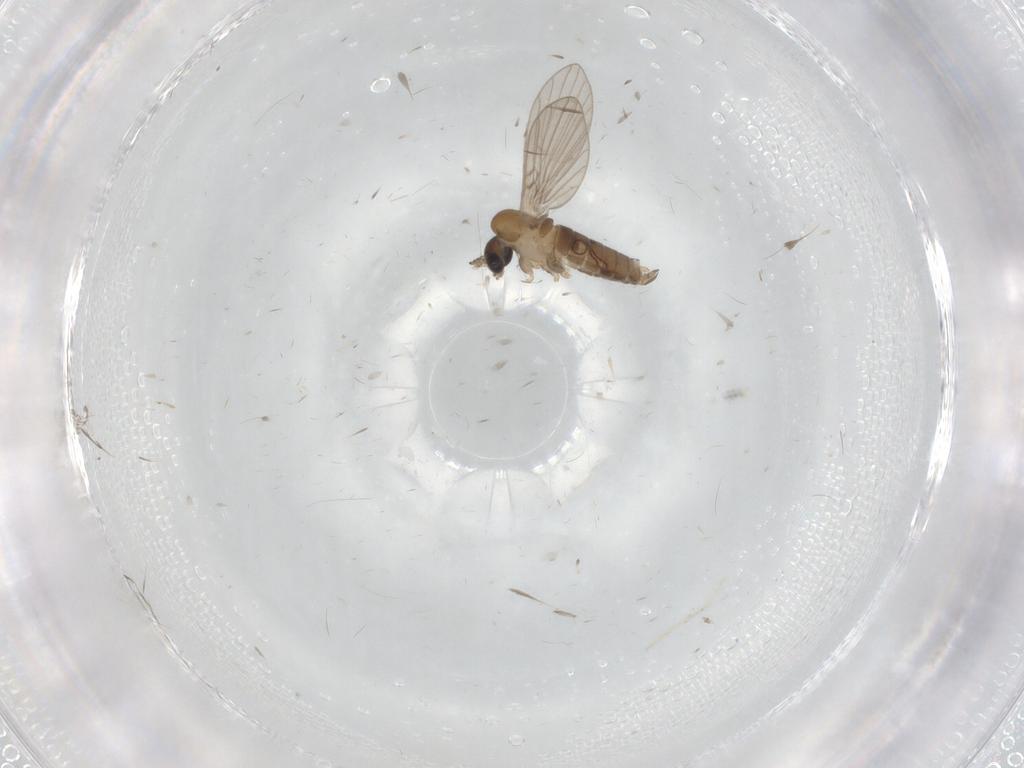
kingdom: Animalia
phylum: Arthropoda
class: Insecta
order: Diptera
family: Psychodidae
